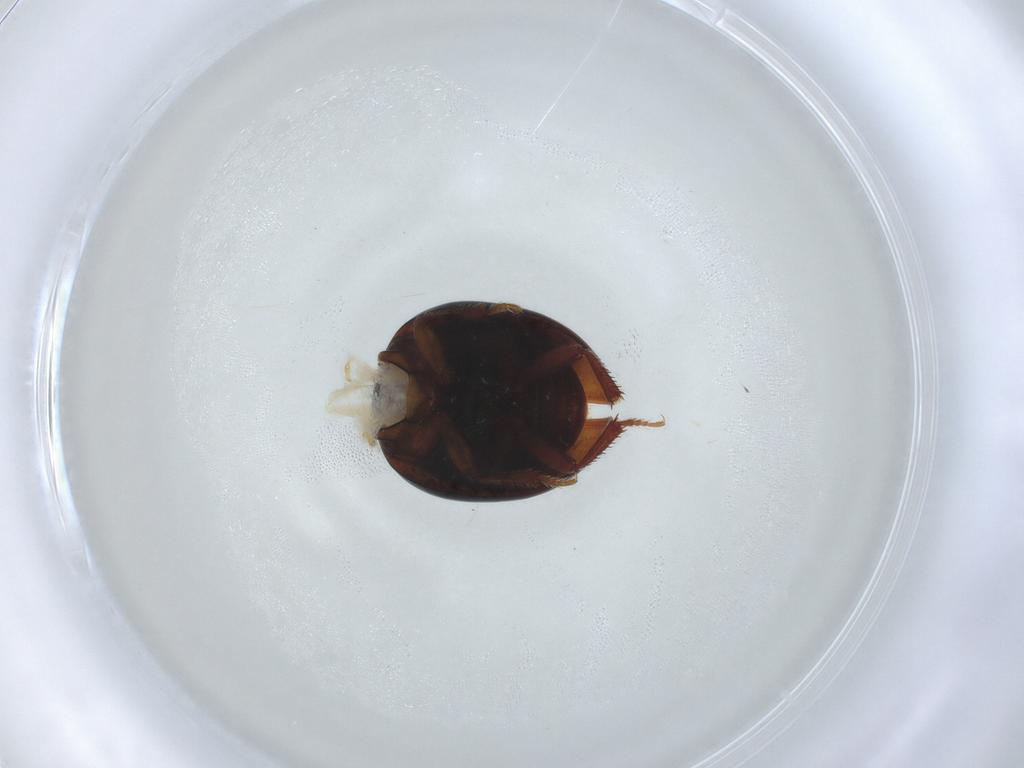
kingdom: Animalia
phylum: Arthropoda
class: Insecta
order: Coleoptera
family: Leiodidae
